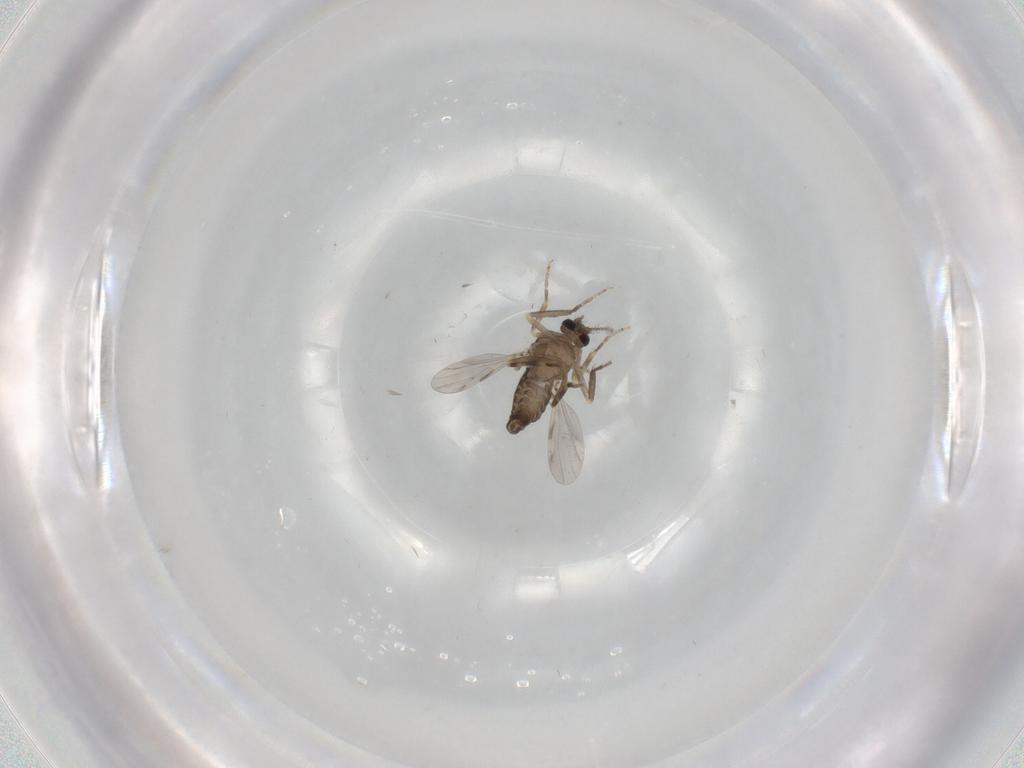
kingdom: Animalia
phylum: Arthropoda
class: Insecta
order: Diptera
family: Ceratopogonidae
